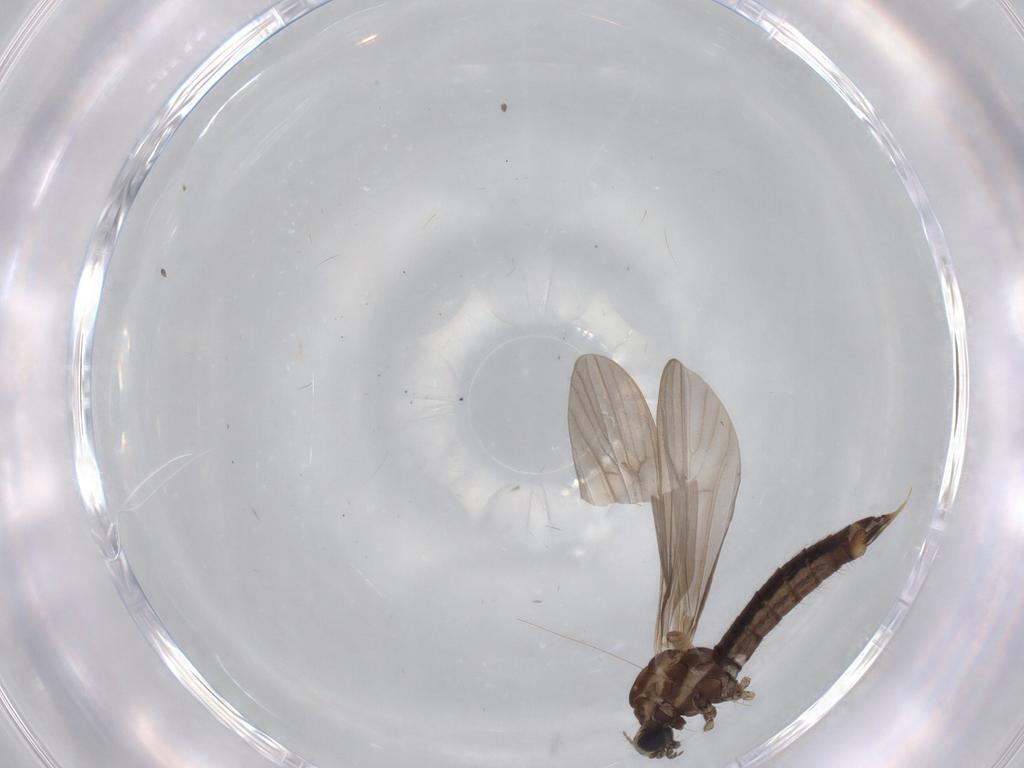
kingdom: Animalia
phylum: Arthropoda
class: Insecta
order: Diptera
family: Limoniidae
